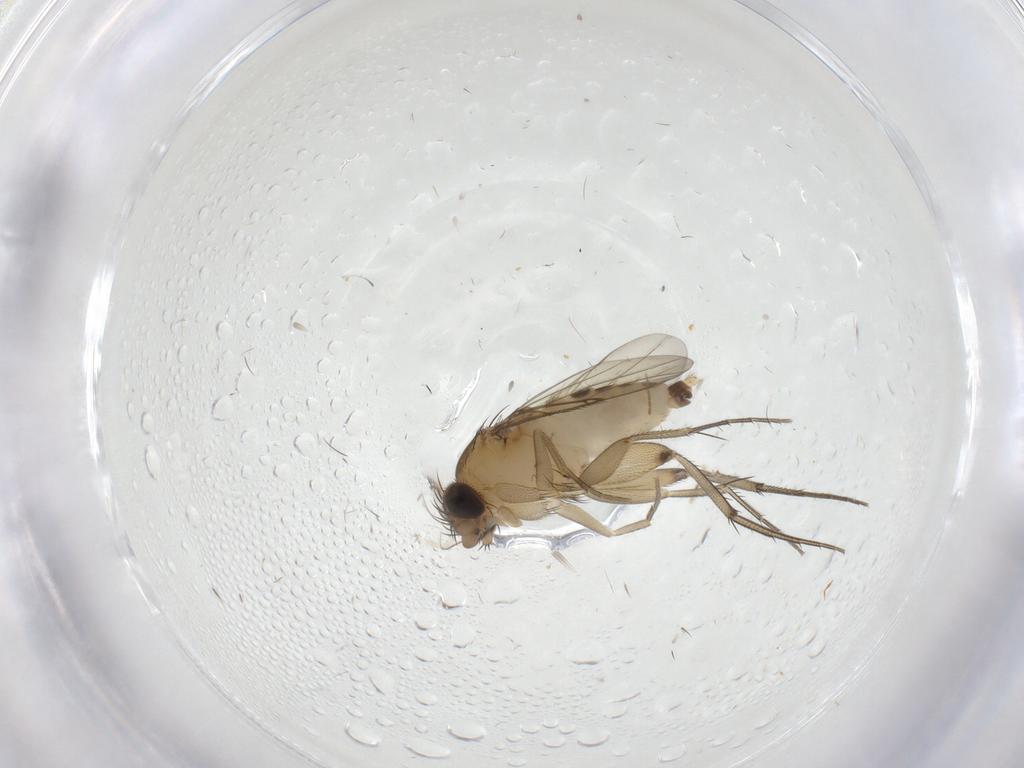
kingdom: Animalia
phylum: Arthropoda
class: Insecta
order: Diptera
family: Phoridae
